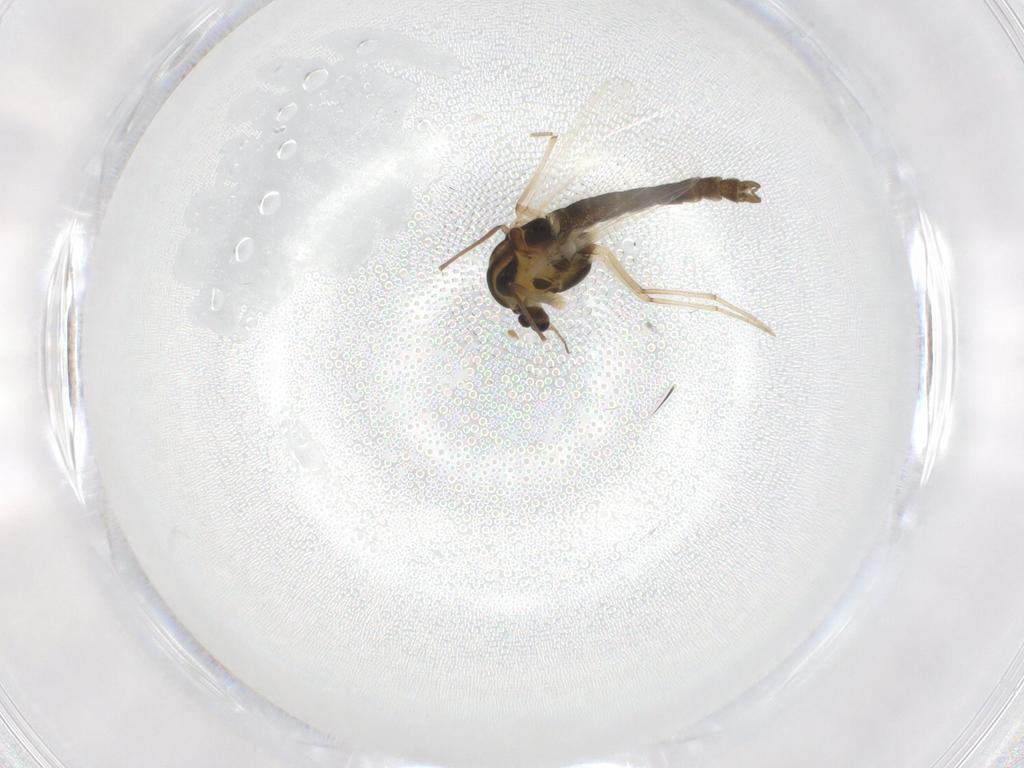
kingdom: Animalia
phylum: Arthropoda
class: Insecta
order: Diptera
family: Chironomidae
